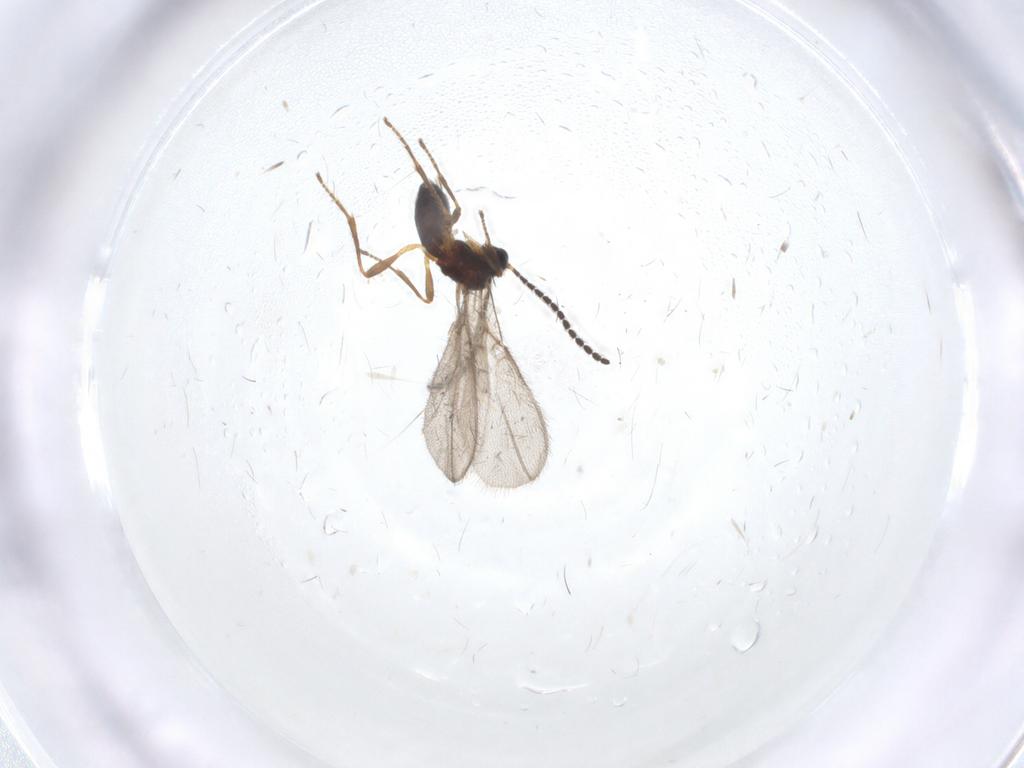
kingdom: Animalia
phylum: Arthropoda
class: Insecta
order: Hymenoptera
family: Braconidae
